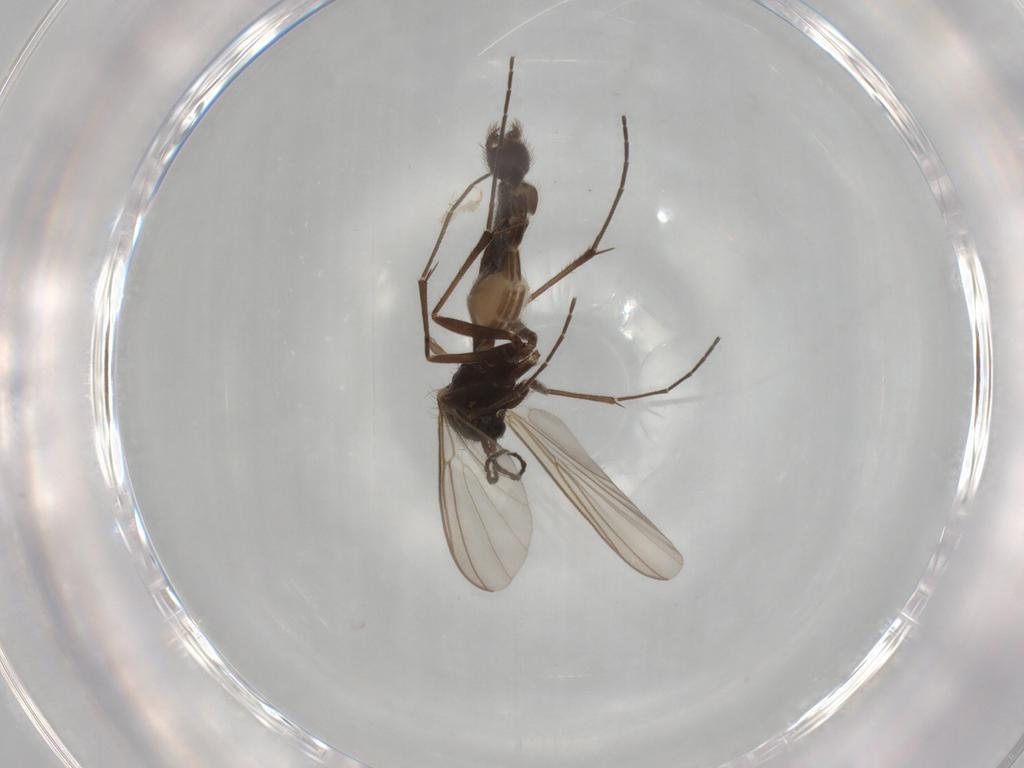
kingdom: Animalia
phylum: Arthropoda
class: Insecta
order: Diptera
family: Mycetophilidae
